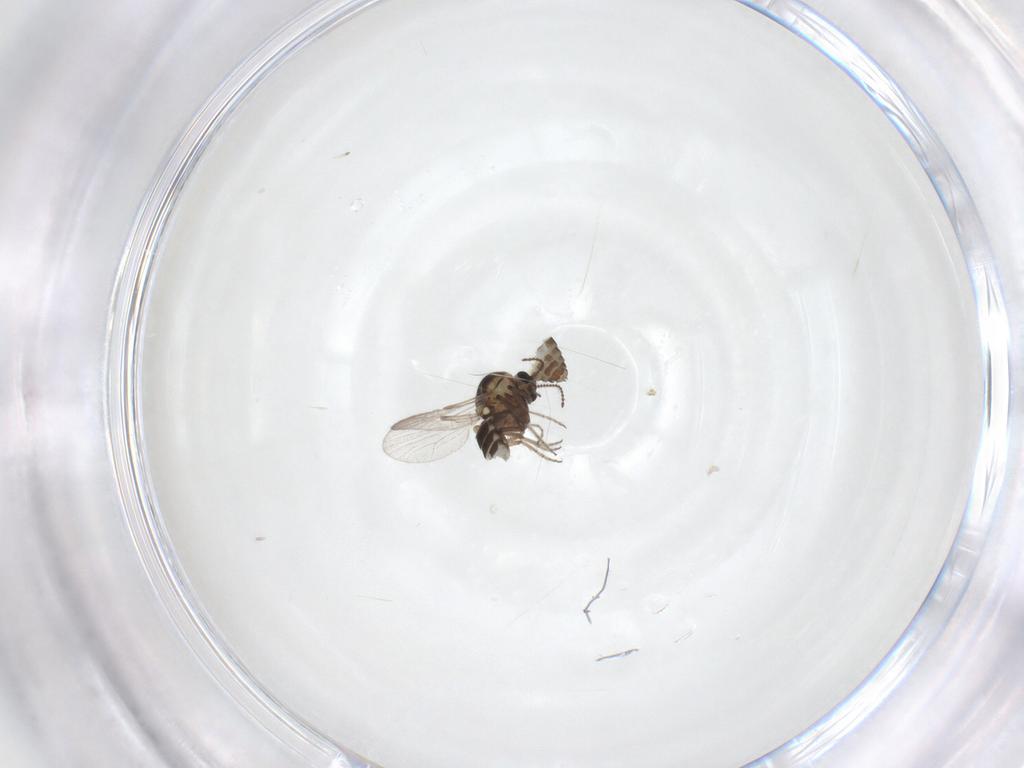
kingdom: Animalia
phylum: Arthropoda
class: Insecta
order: Diptera
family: Ceratopogonidae
